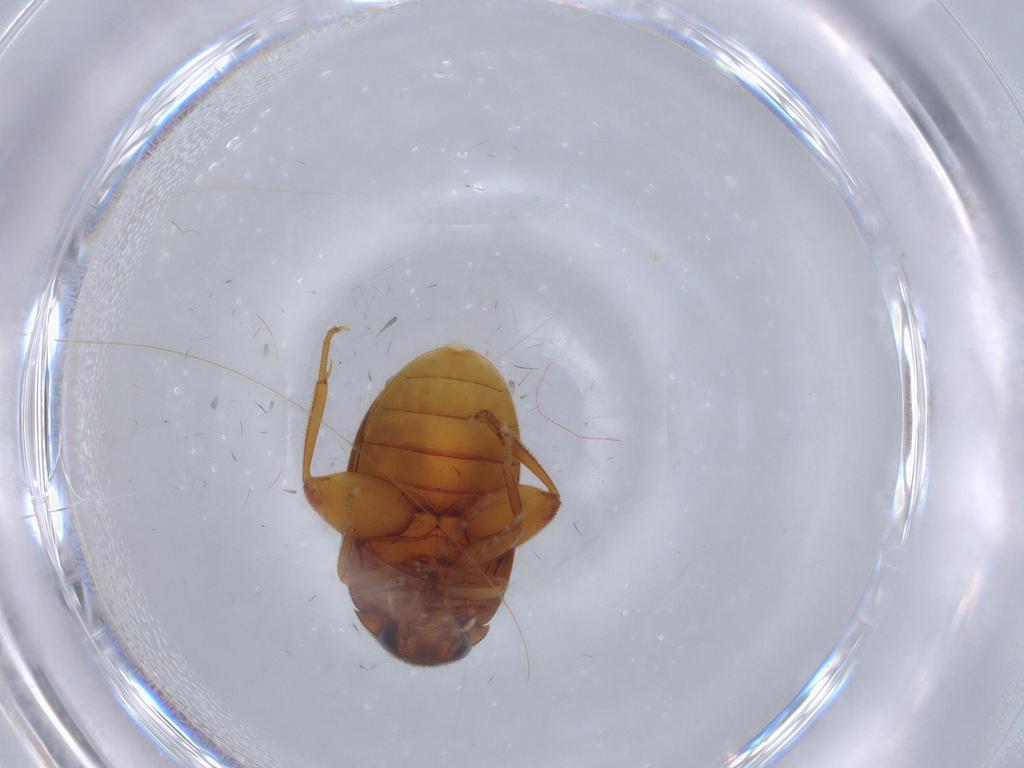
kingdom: Animalia
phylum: Arthropoda
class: Insecta
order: Coleoptera
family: Scirtidae
